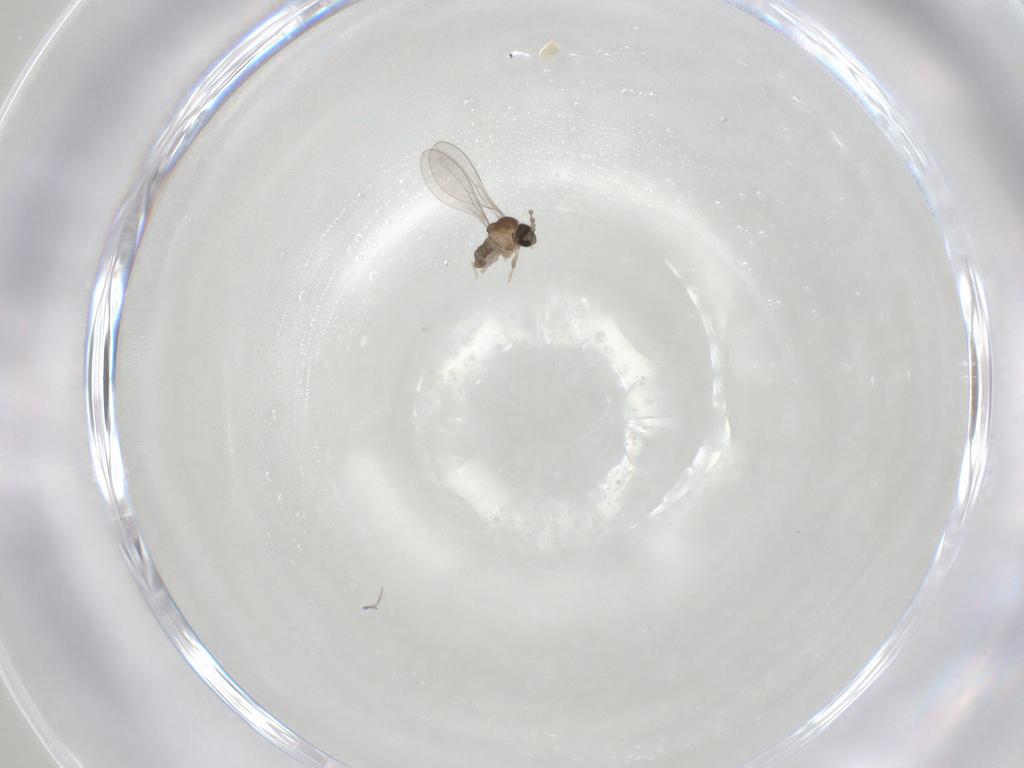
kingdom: Animalia
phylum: Arthropoda
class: Insecta
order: Diptera
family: Cecidomyiidae
